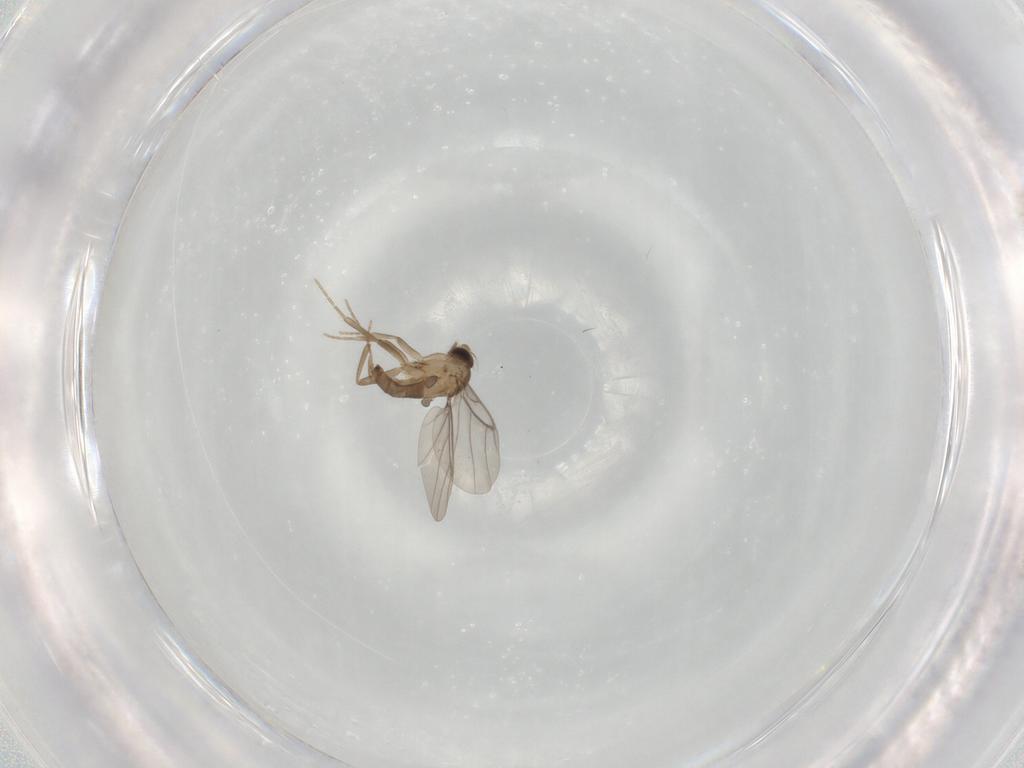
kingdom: Animalia
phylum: Arthropoda
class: Insecta
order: Diptera
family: Limoniidae
